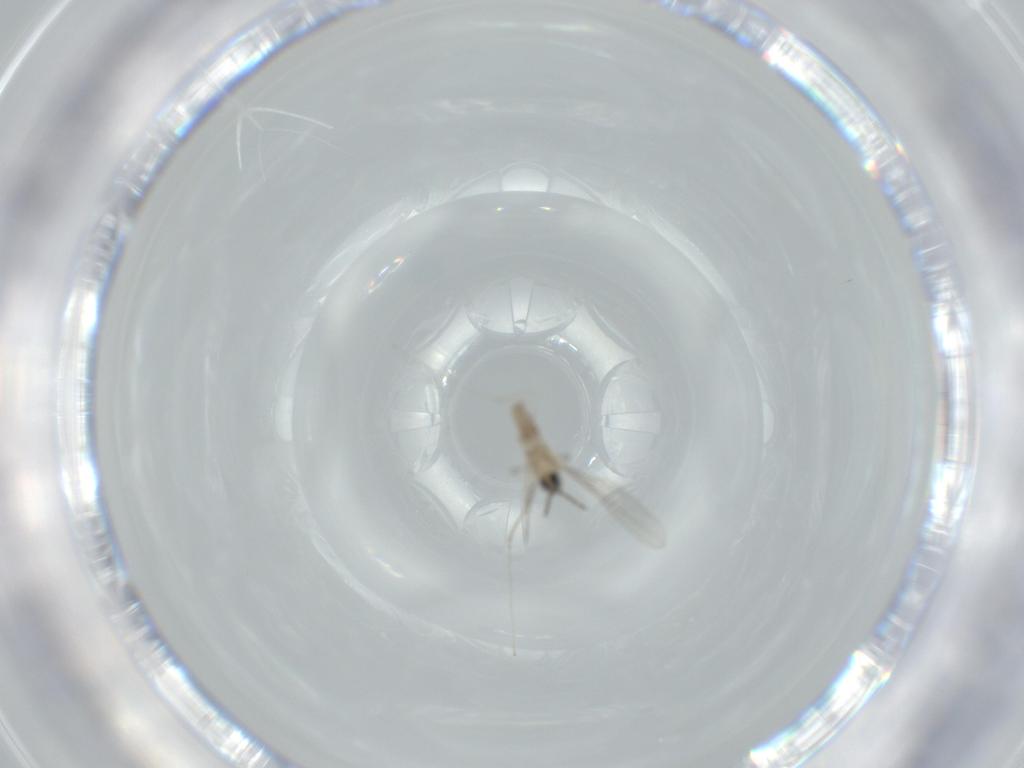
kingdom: Animalia
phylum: Arthropoda
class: Insecta
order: Diptera
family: Cecidomyiidae
